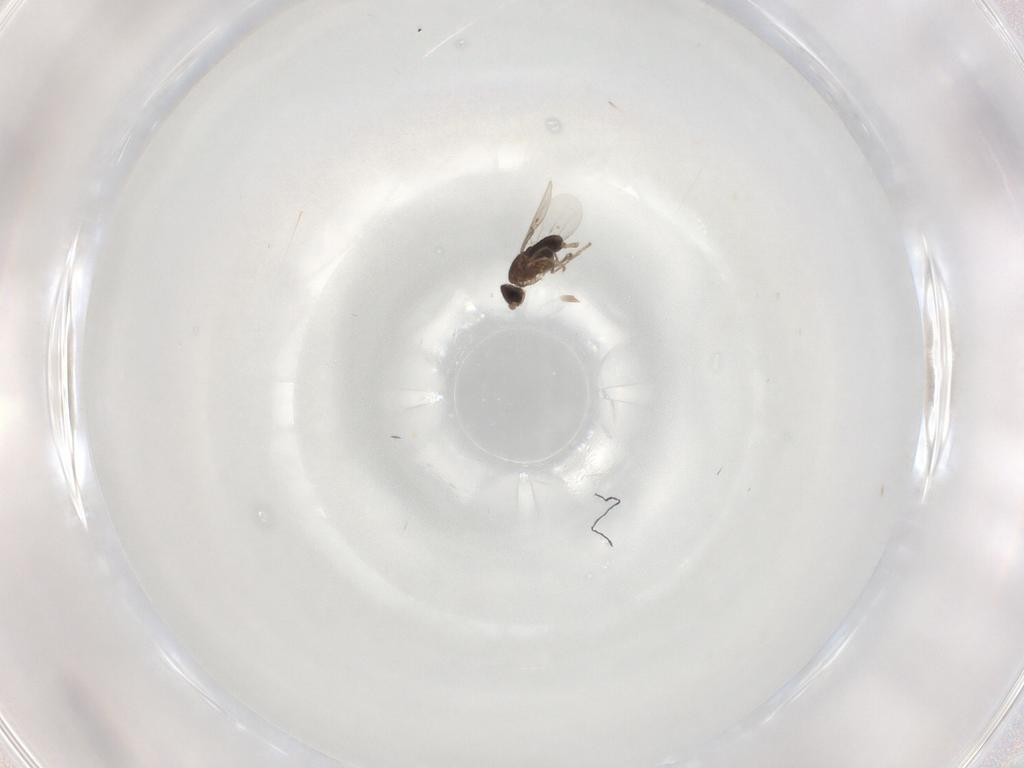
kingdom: Animalia
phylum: Arthropoda
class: Insecta
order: Diptera
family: Phoridae
